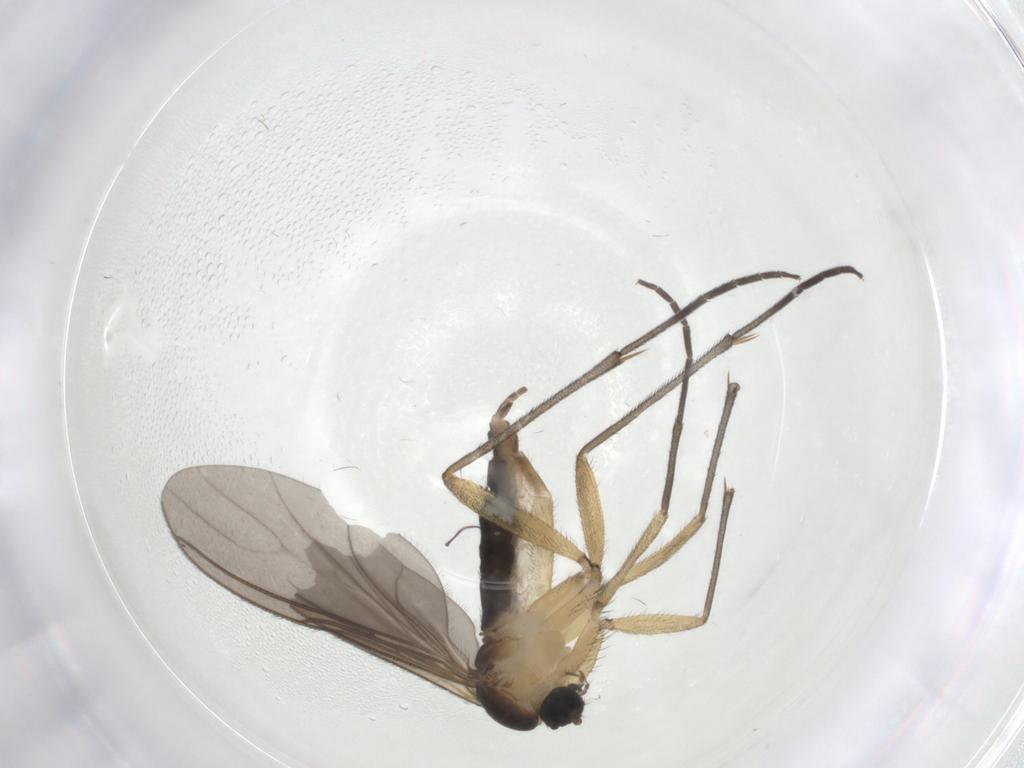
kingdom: Animalia
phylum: Arthropoda
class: Insecta
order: Diptera
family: Sciaridae
